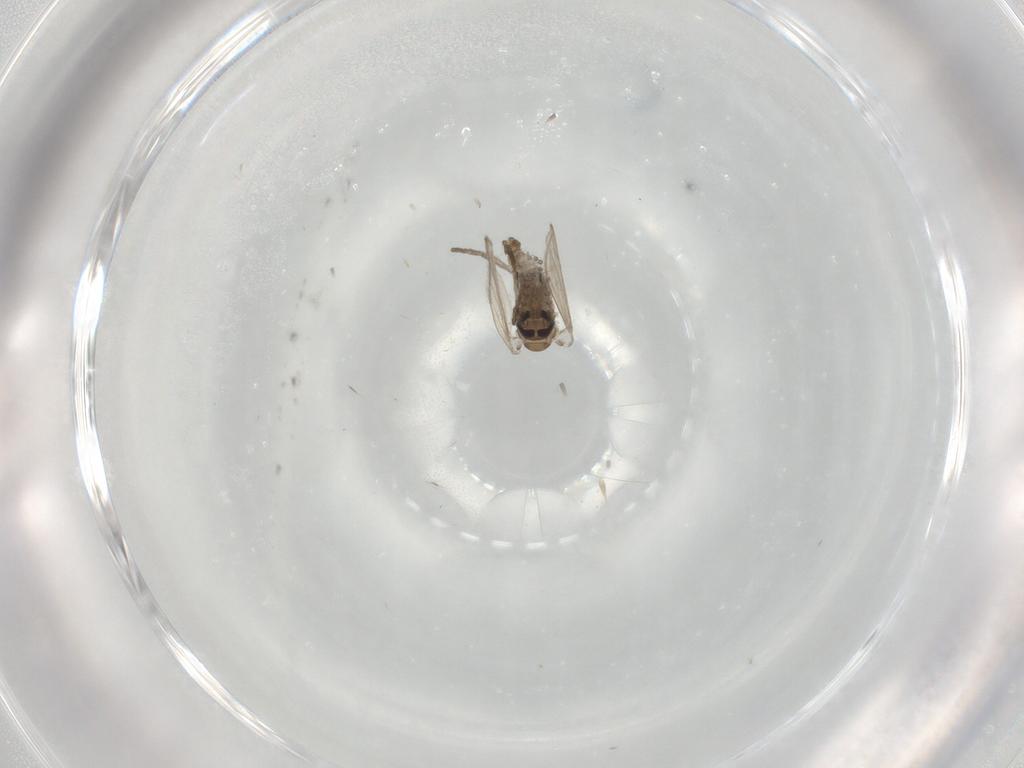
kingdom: Animalia
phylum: Arthropoda
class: Insecta
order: Diptera
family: Psychodidae
